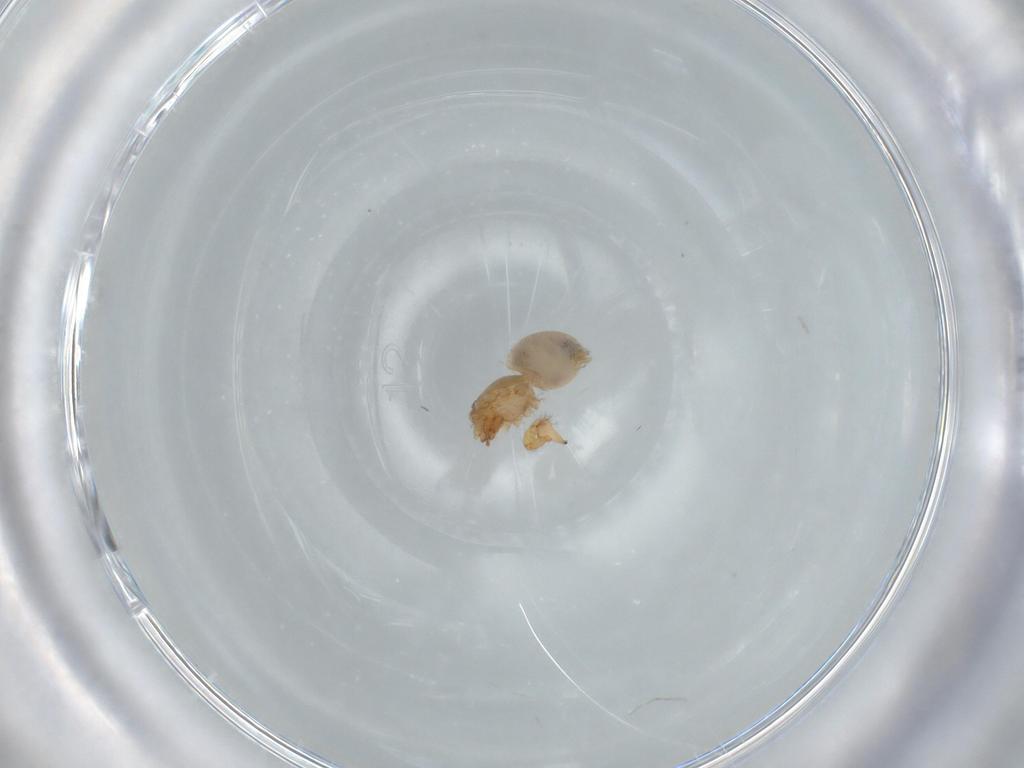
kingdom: Animalia
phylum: Arthropoda
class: Arachnida
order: Araneae
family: Oonopidae
